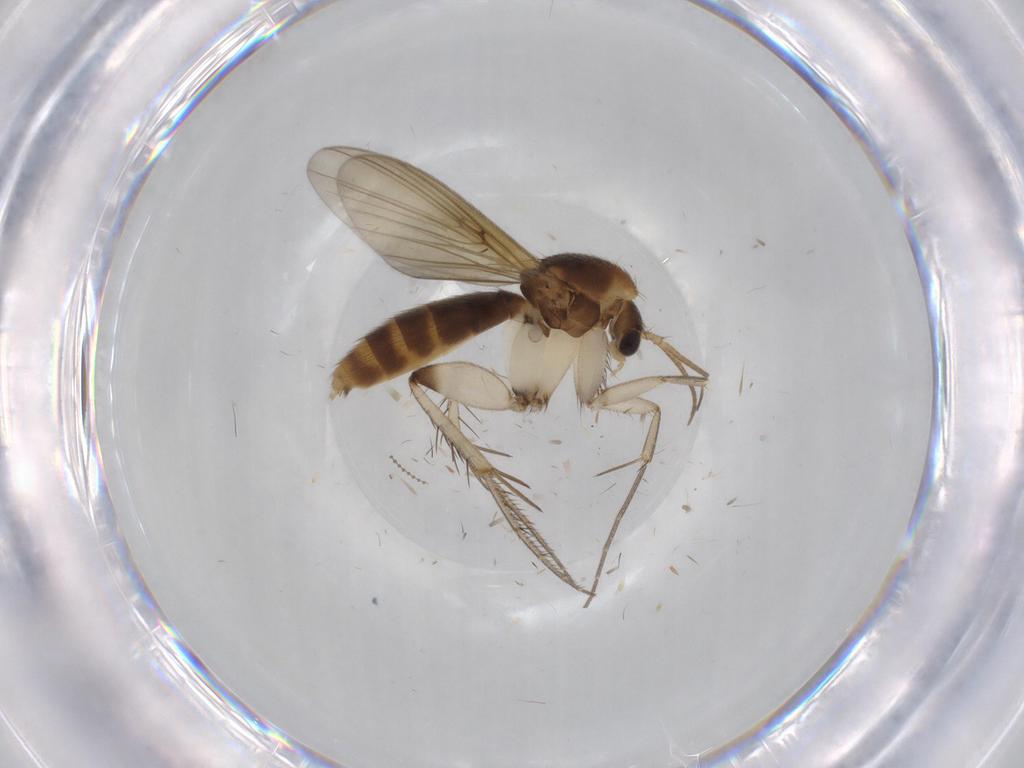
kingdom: Animalia
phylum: Arthropoda
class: Insecta
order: Diptera
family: Mycetophilidae
